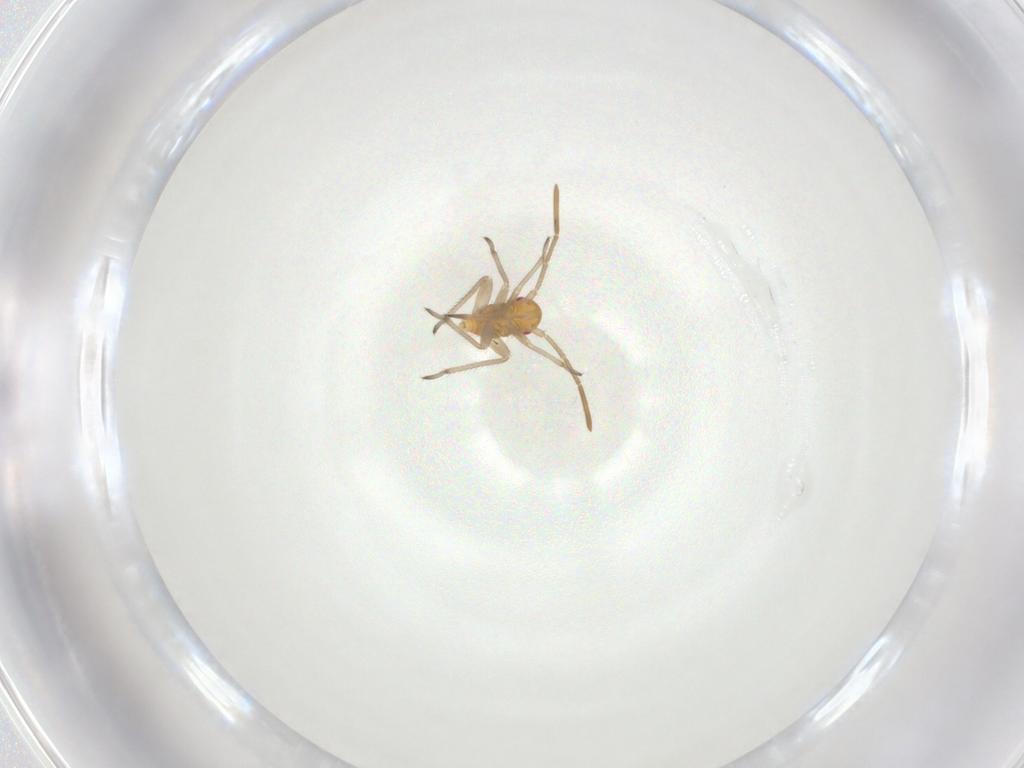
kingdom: Animalia
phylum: Arthropoda
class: Insecta
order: Hemiptera
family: Miridae
